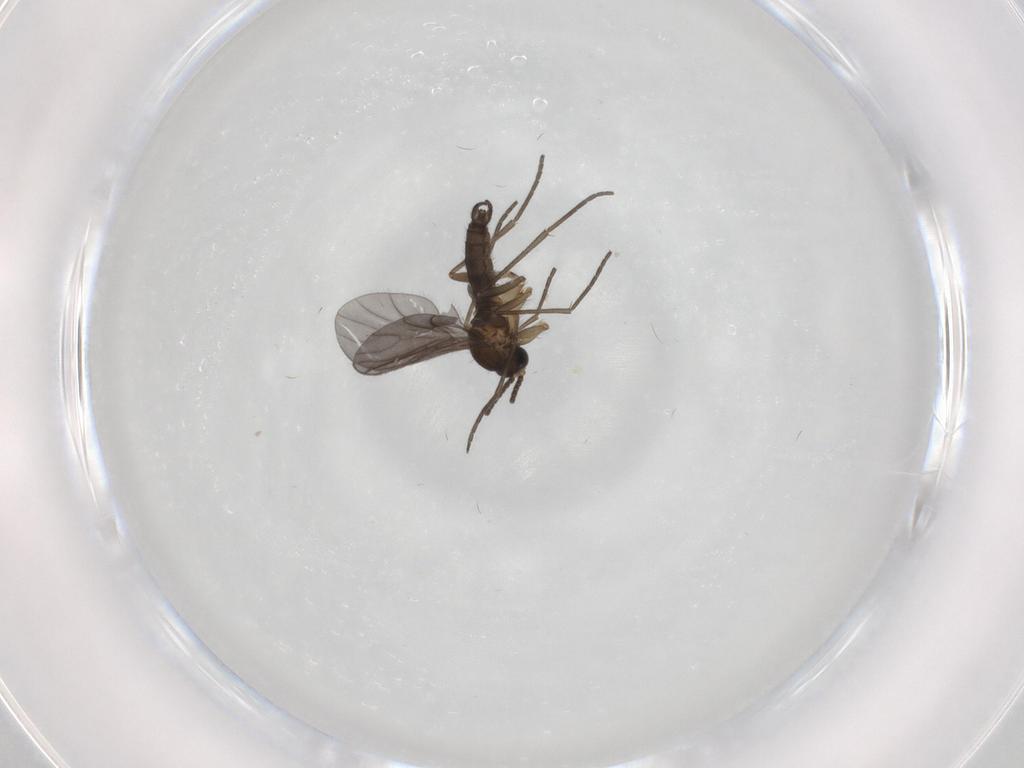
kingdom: Animalia
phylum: Arthropoda
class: Insecta
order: Diptera
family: Sciaridae
